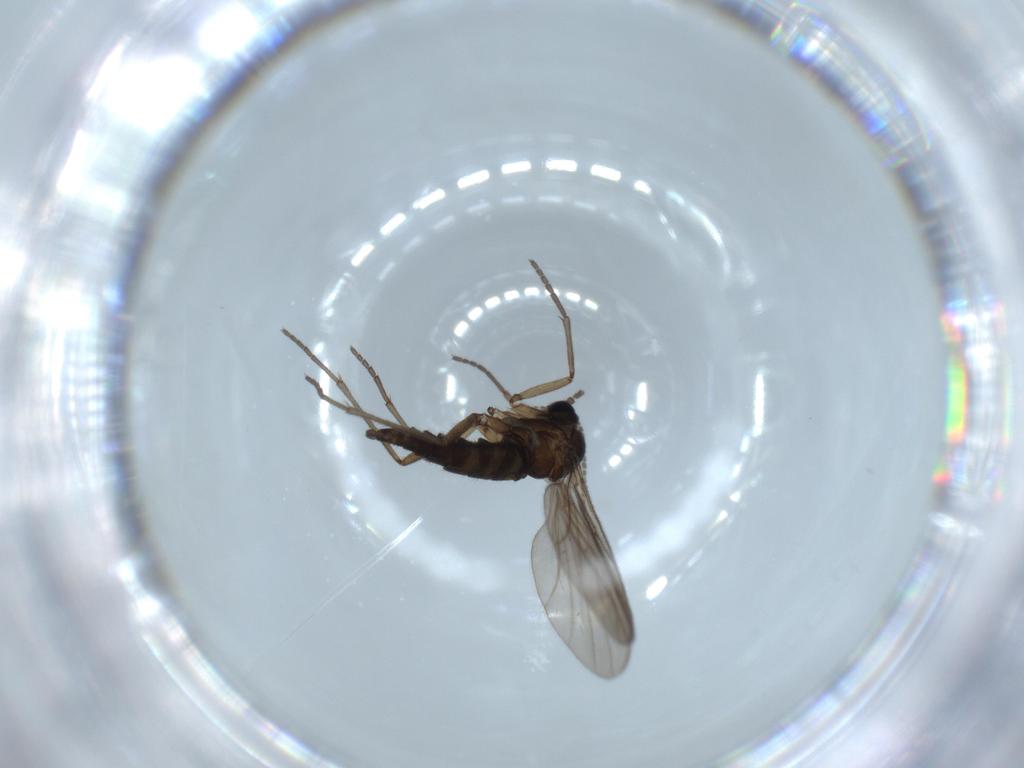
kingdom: Animalia
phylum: Arthropoda
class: Insecta
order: Diptera
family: Sciaridae
